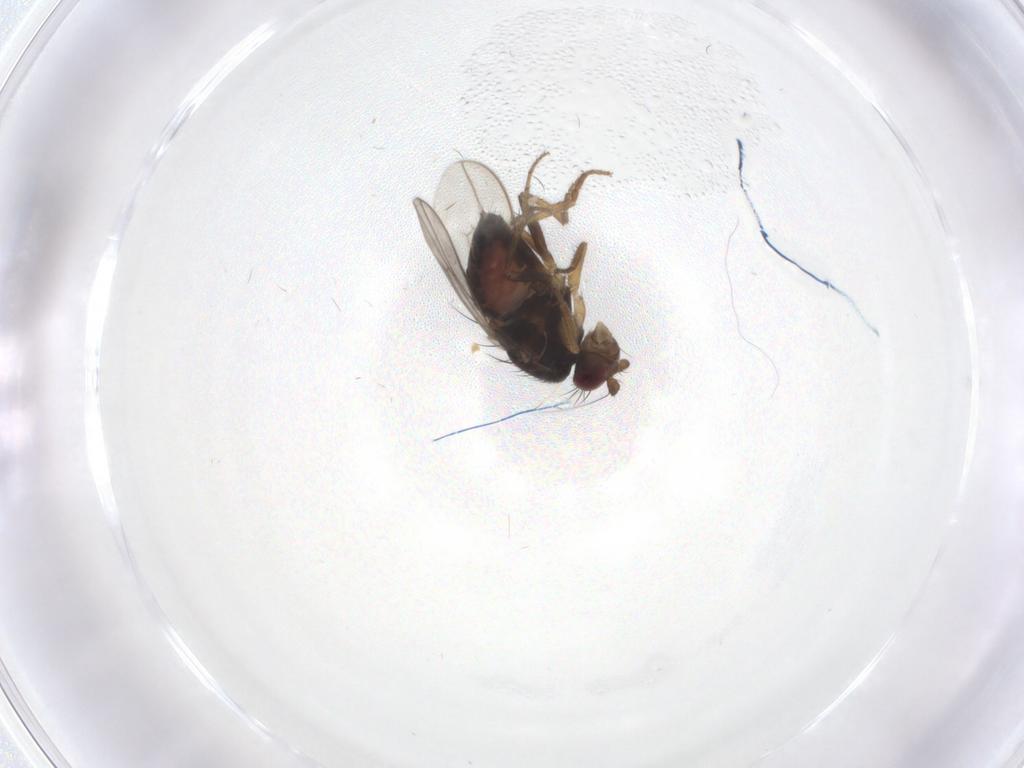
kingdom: Animalia
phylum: Arthropoda
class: Insecta
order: Diptera
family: Sphaeroceridae
